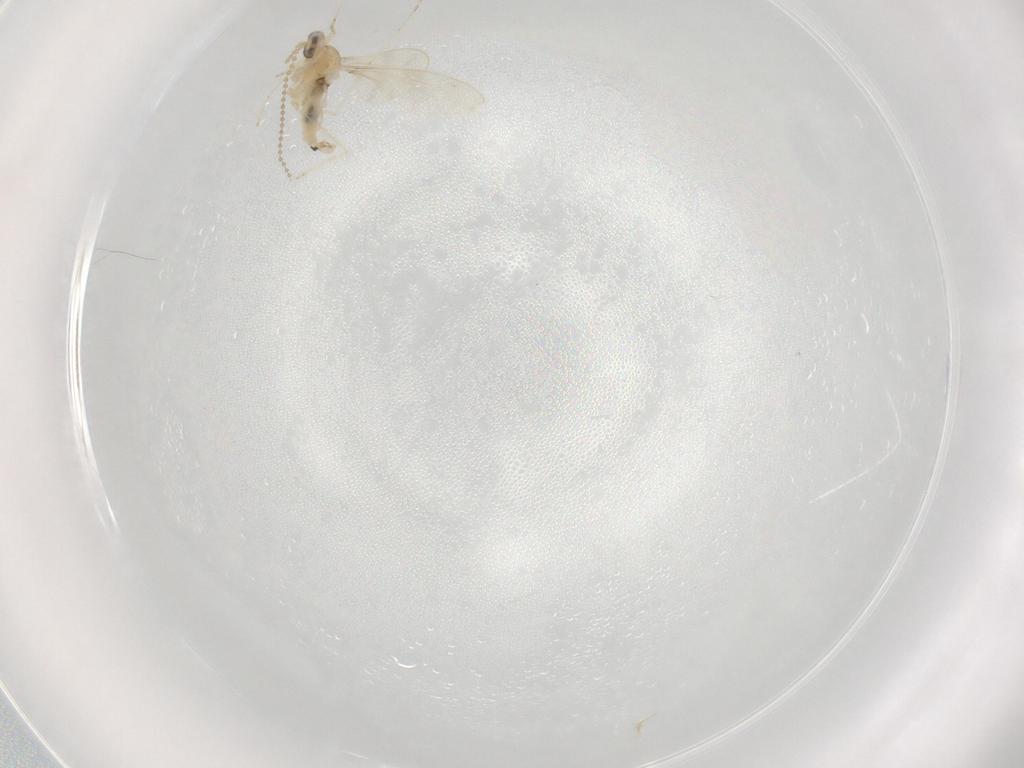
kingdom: Animalia
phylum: Arthropoda
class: Insecta
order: Diptera
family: Cecidomyiidae
